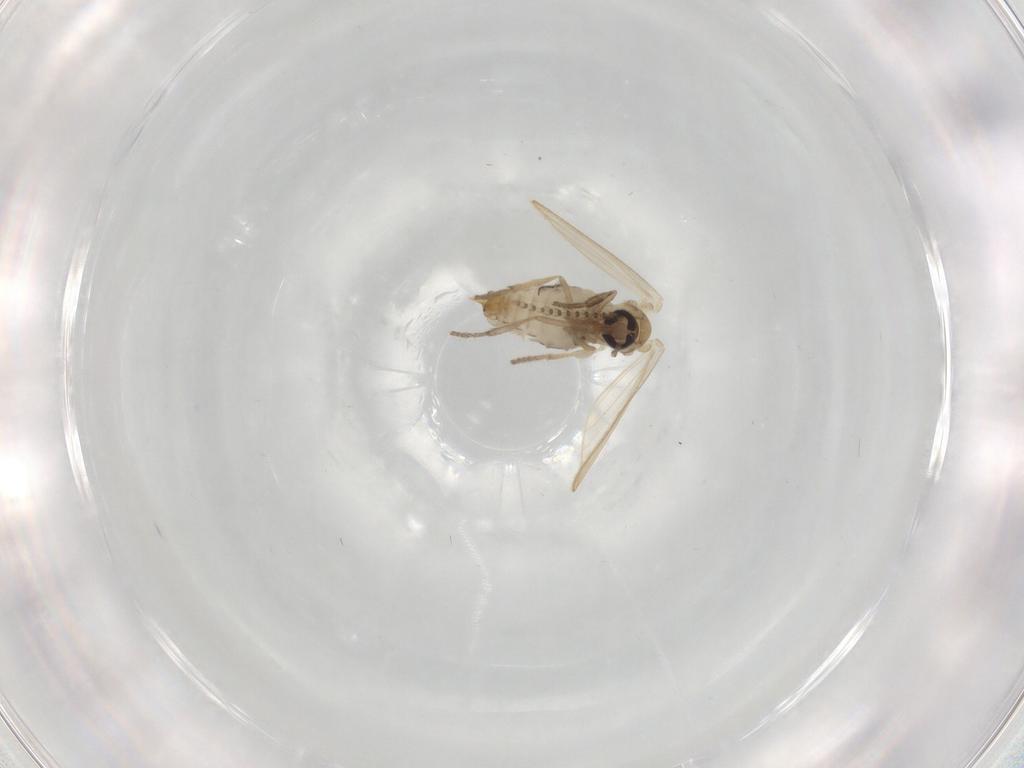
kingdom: Animalia
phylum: Arthropoda
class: Insecta
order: Diptera
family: Psychodidae
